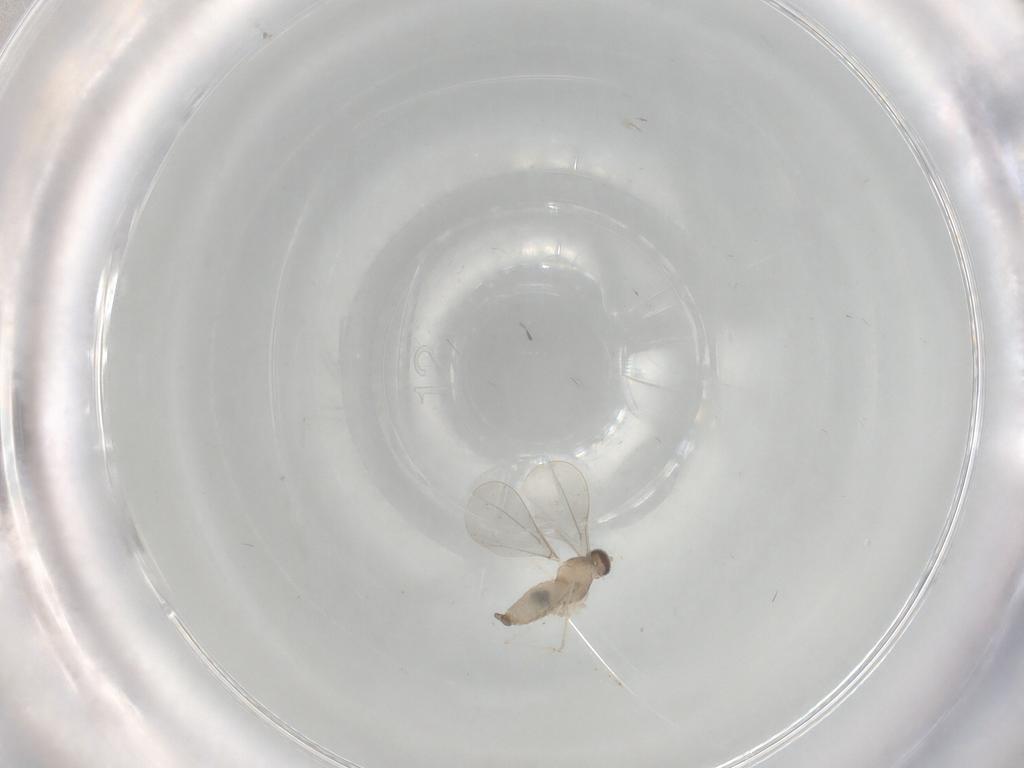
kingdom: Animalia
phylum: Arthropoda
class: Insecta
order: Diptera
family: Cecidomyiidae
